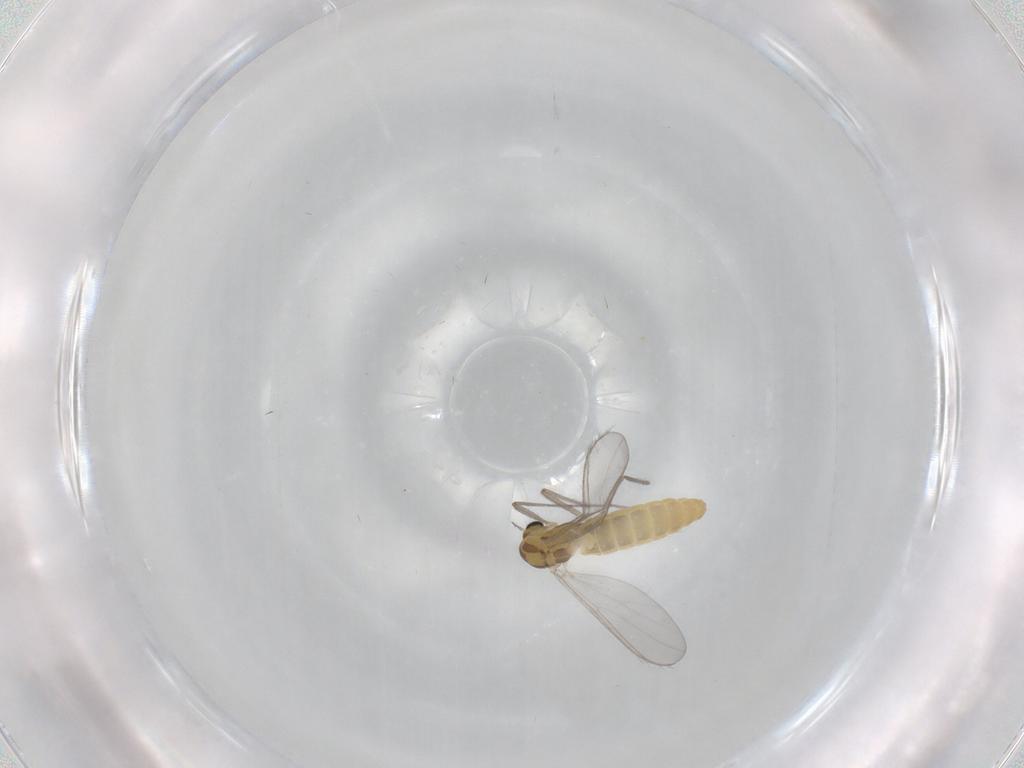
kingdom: Animalia
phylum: Arthropoda
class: Insecta
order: Diptera
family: Chironomidae
